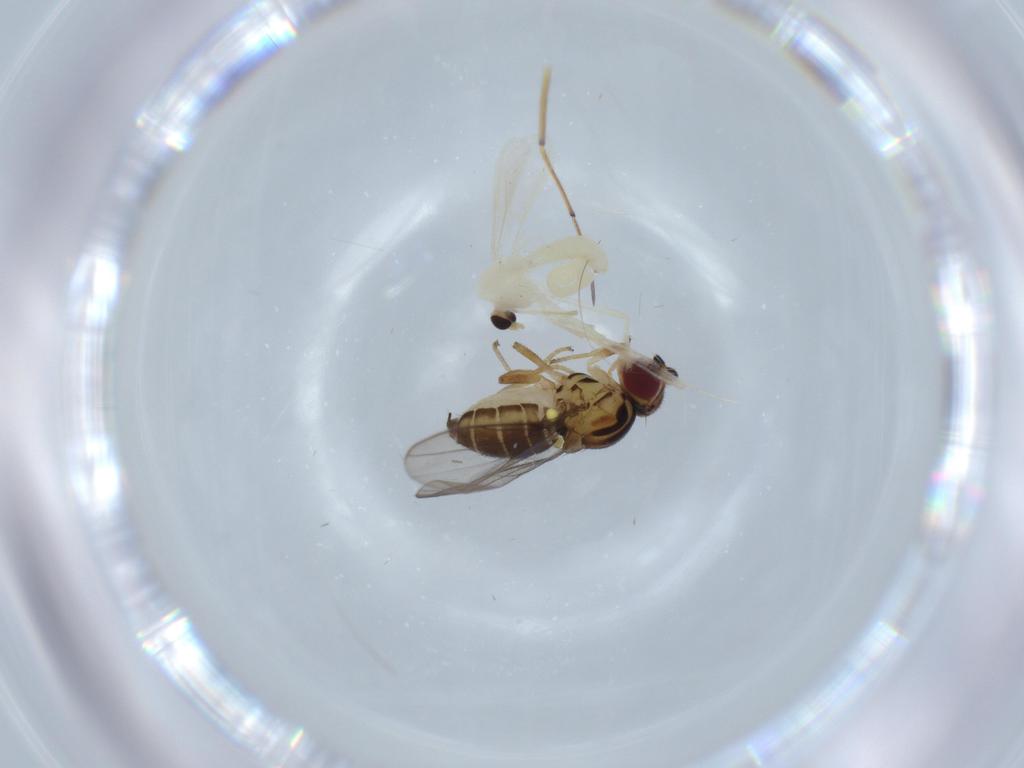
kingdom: Animalia
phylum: Arthropoda
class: Insecta
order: Diptera
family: Chironomidae
